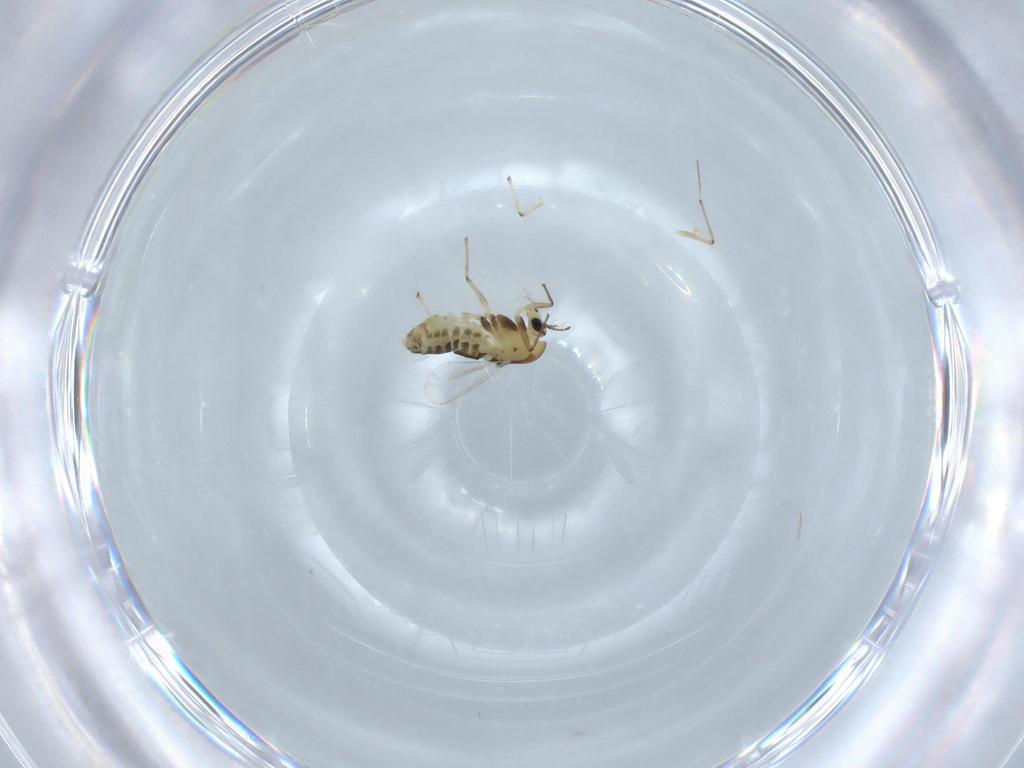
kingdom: Animalia
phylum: Arthropoda
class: Insecta
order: Diptera
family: Chironomidae
